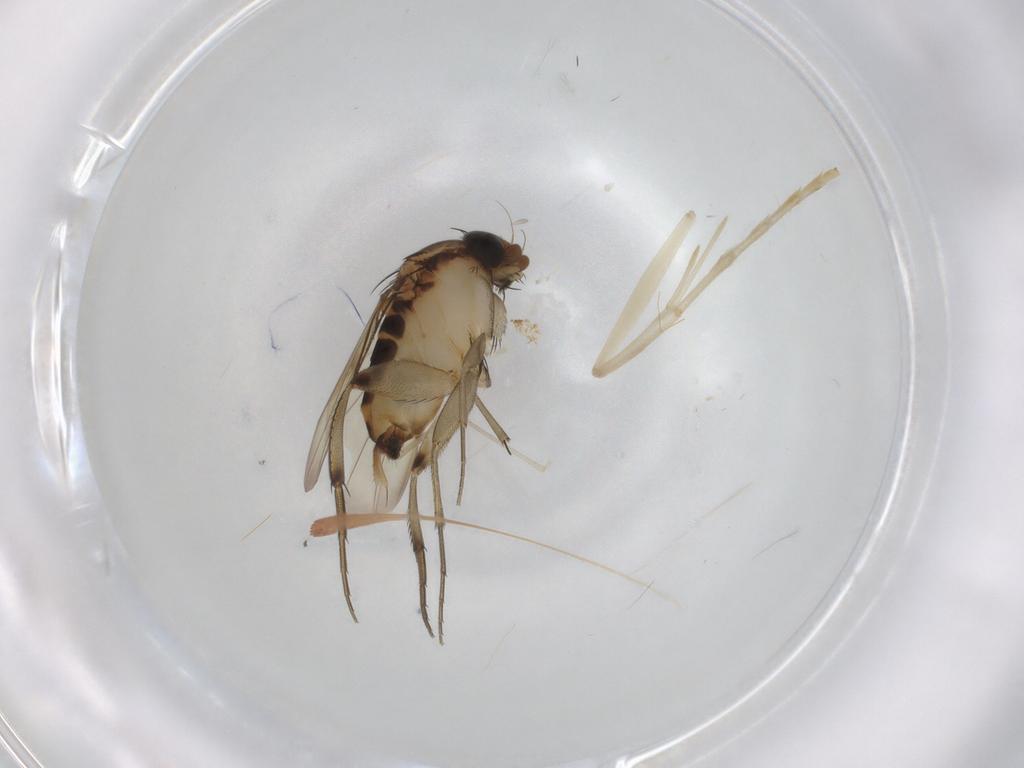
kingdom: Animalia
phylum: Arthropoda
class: Insecta
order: Diptera
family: Phoridae
